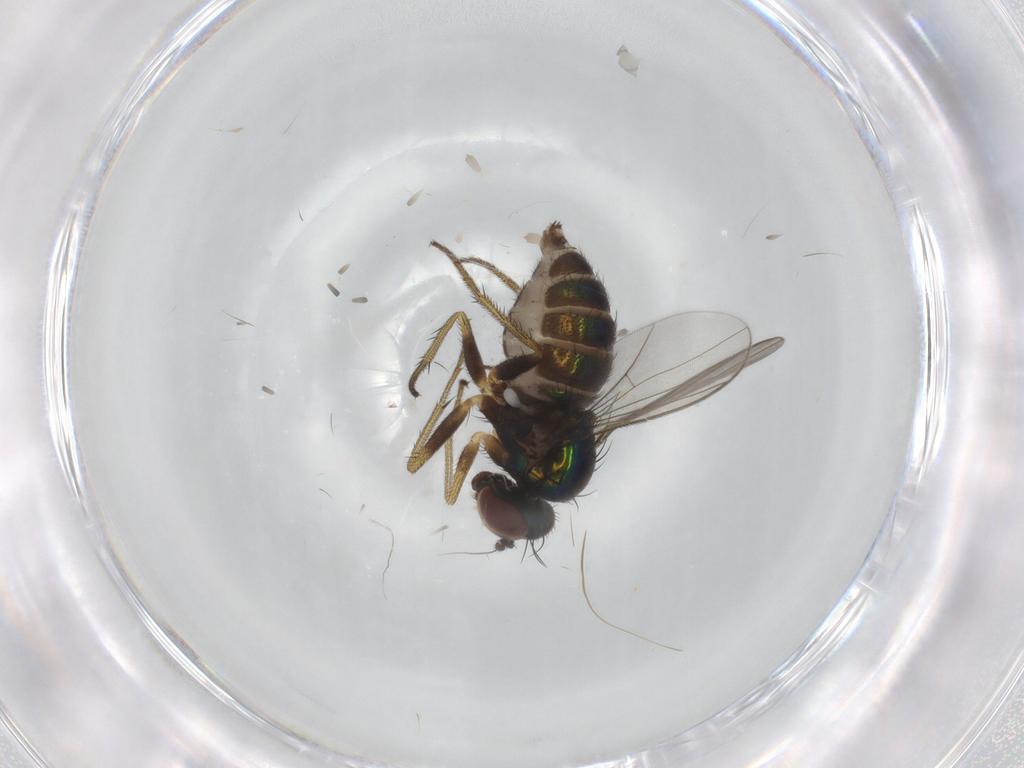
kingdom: Animalia
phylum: Arthropoda
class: Insecta
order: Diptera
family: Dolichopodidae
